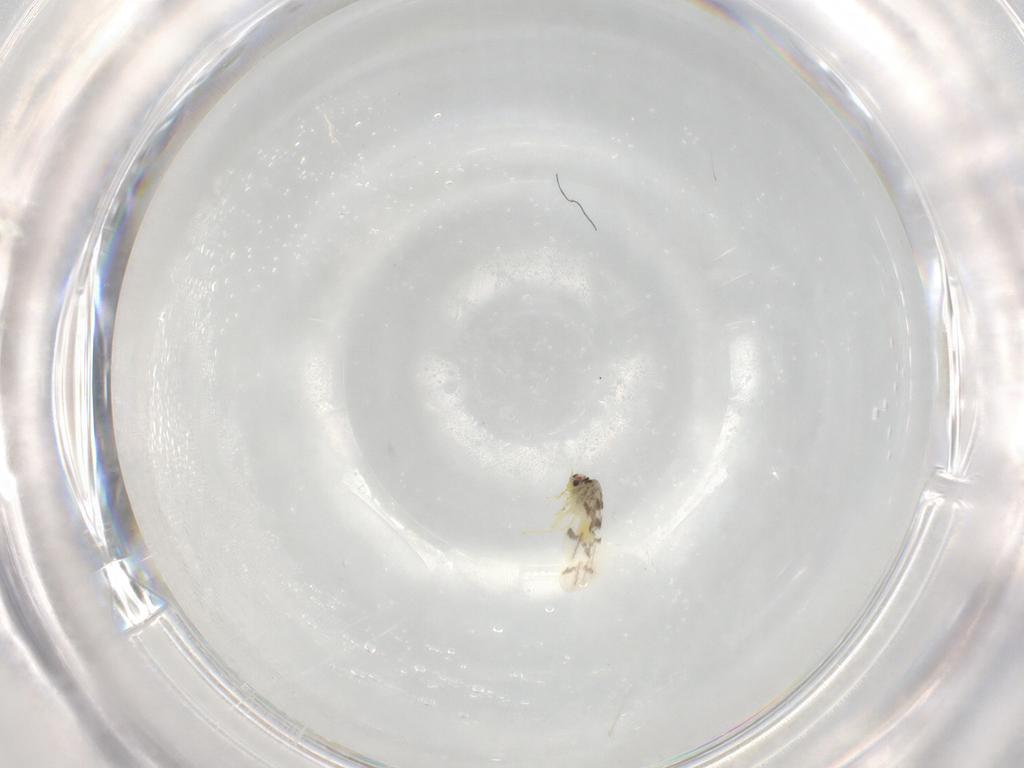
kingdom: Animalia
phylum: Arthropoda
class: Insecta
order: Hemiptera
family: Aleyrodidae
